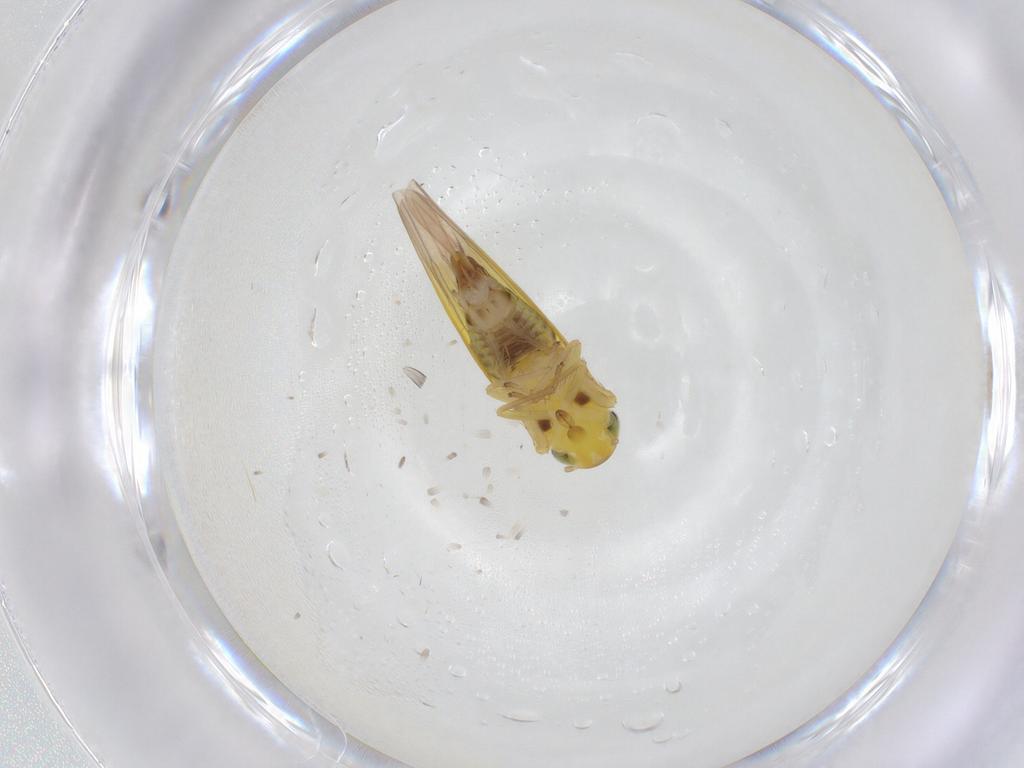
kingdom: Animalia
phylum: Arthropoda
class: Insecta
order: Hemiptera
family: Cicadellidae
